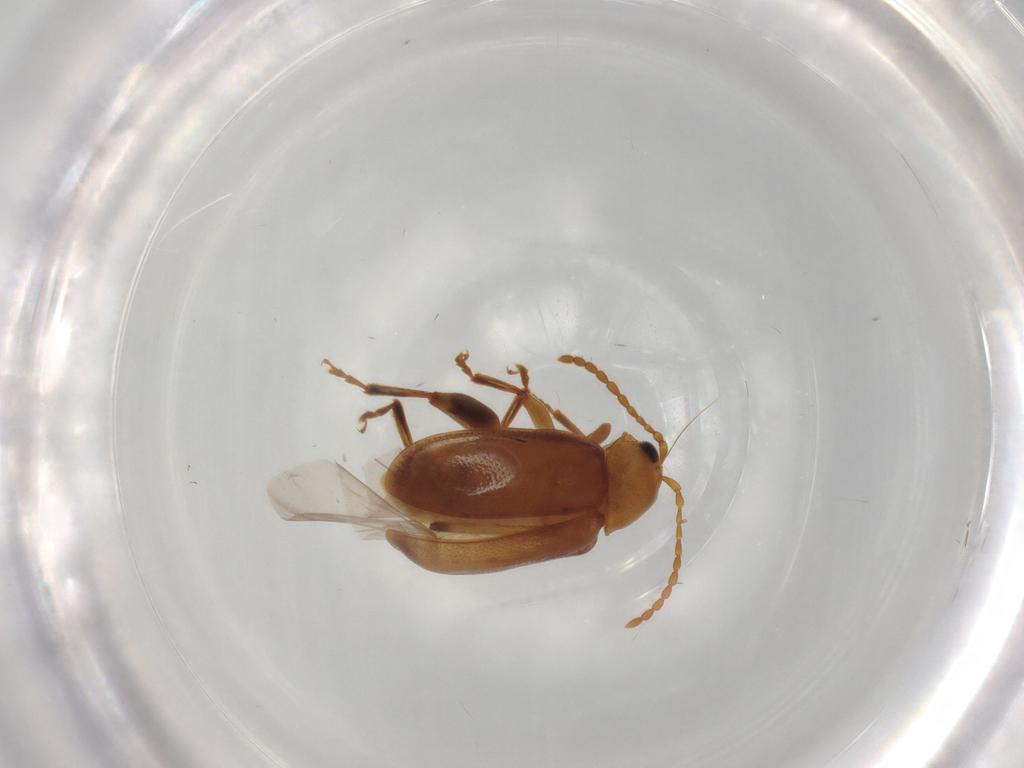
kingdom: Animalia
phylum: Arthropoda
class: Insecta
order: Coleoptera
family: Chrysomelidae
